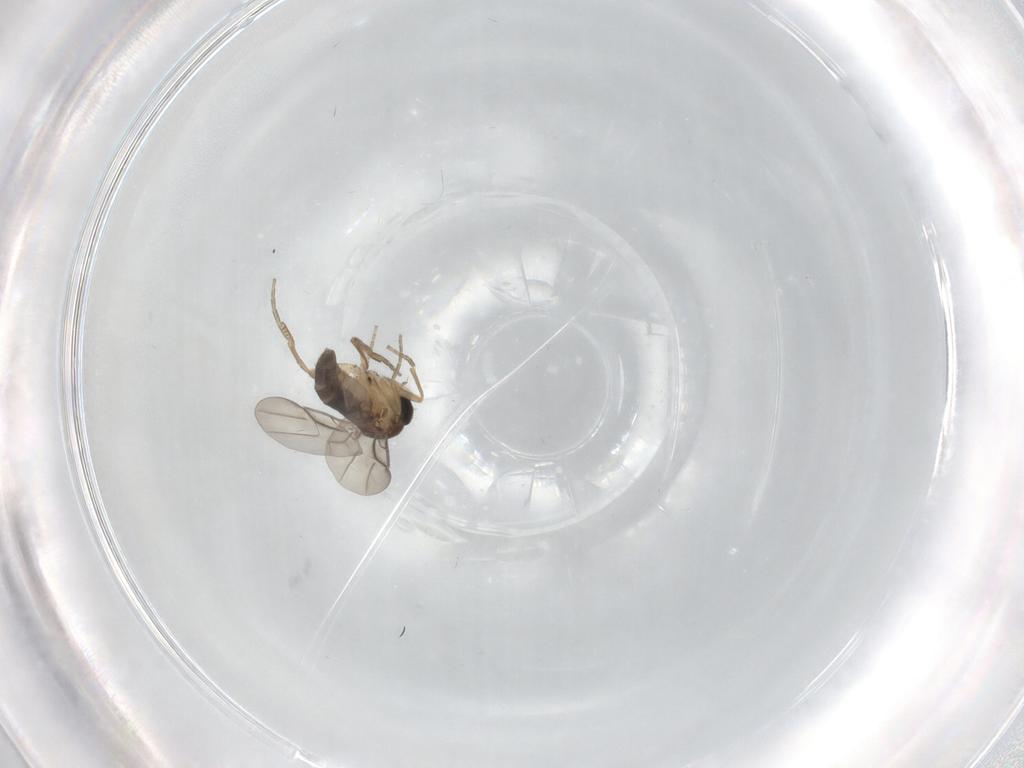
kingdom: Animalia
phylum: Arthropoda
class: Insecta
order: Diptera
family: Phoridae
